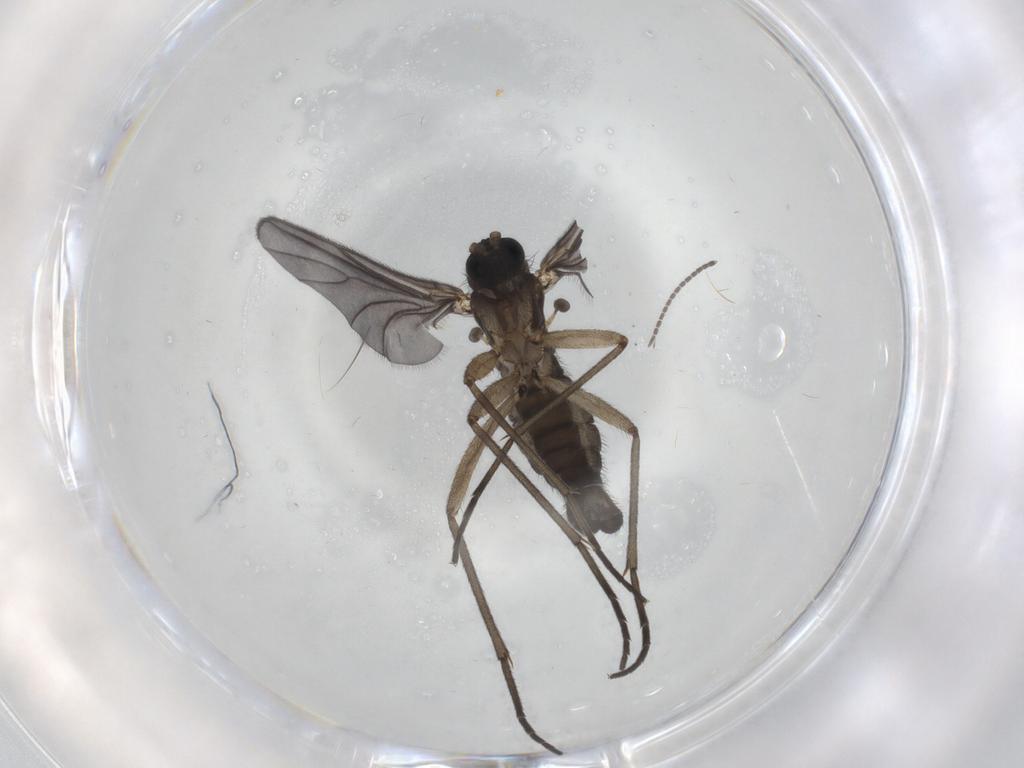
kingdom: Animalia
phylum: Arthropoda
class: Insecta
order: Diptera
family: Sciaridae
